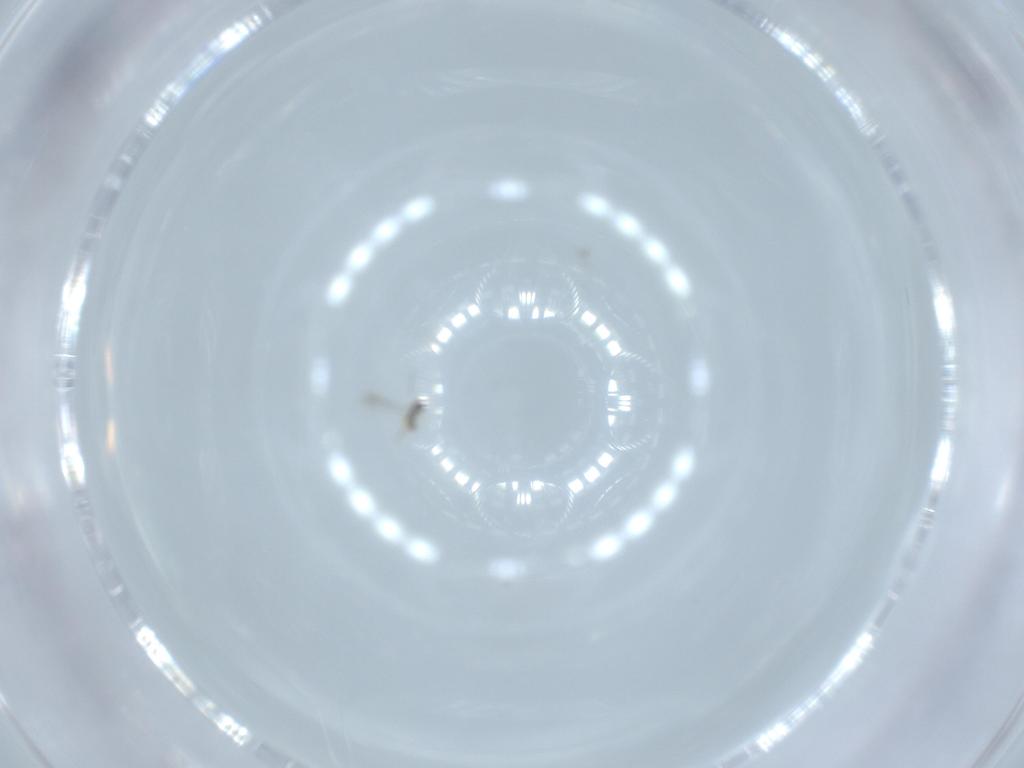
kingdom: Animalia
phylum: Arthropoda
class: Insecta
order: Hymenoptera
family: Mymaridae
